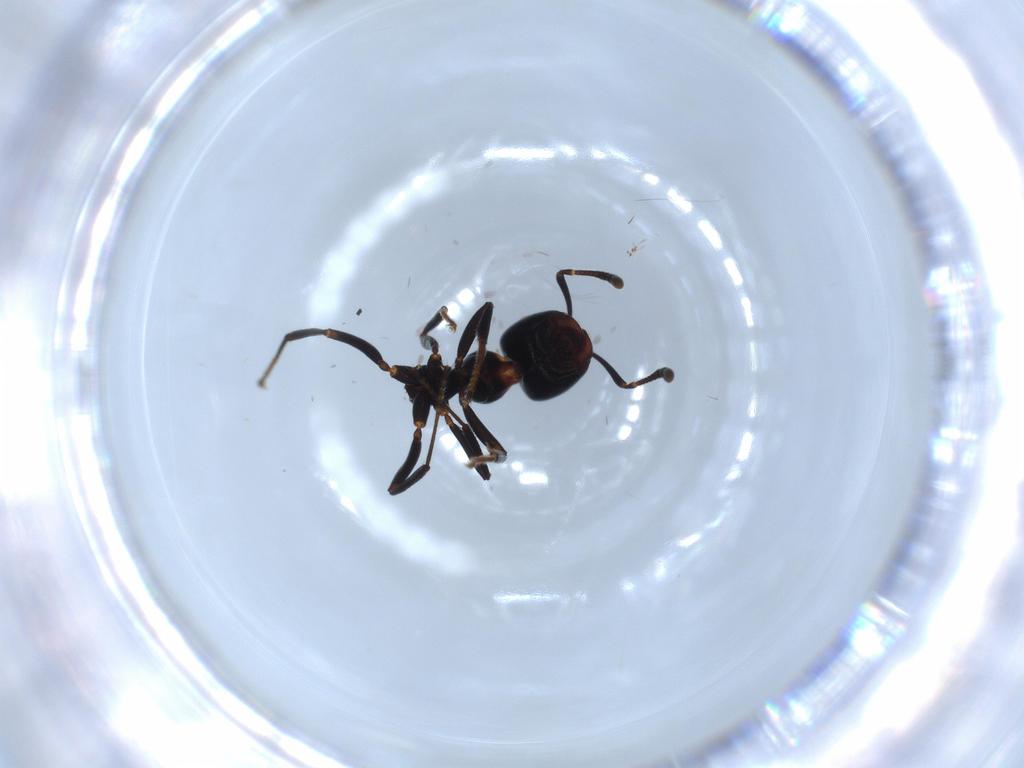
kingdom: Animalia
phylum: Arthropoda
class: Insecta
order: Hymenoptera
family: Formicidae
